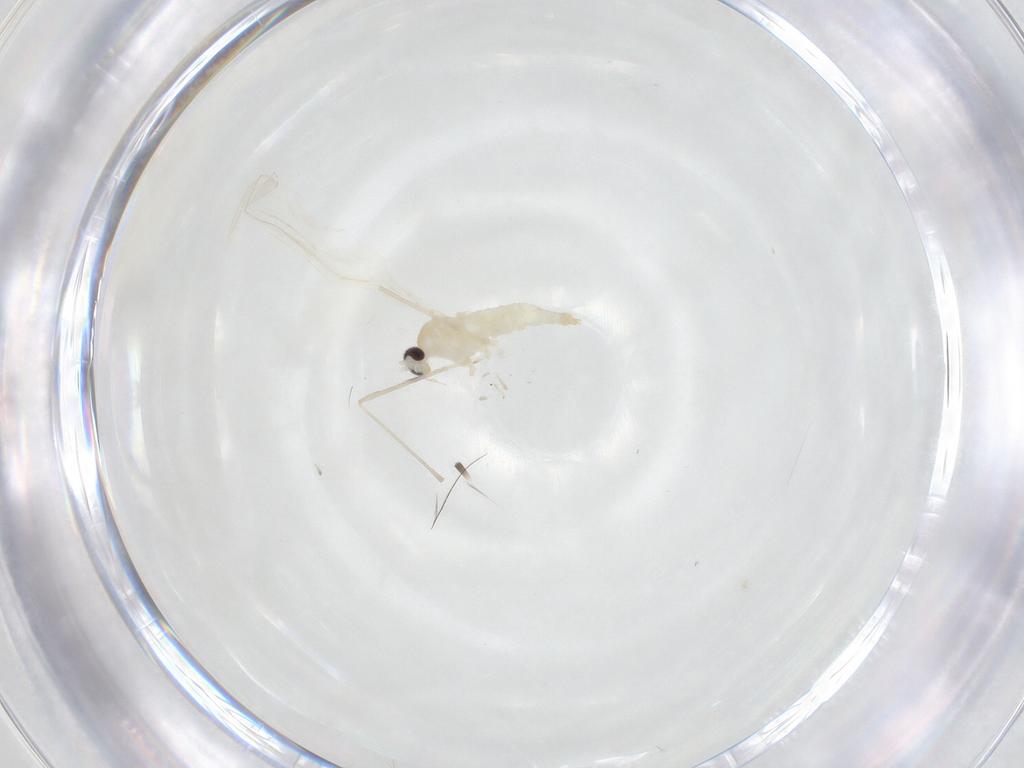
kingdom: Animalia
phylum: Arthropoda
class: Insecta
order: Diptera
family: Cecidomyiidae
